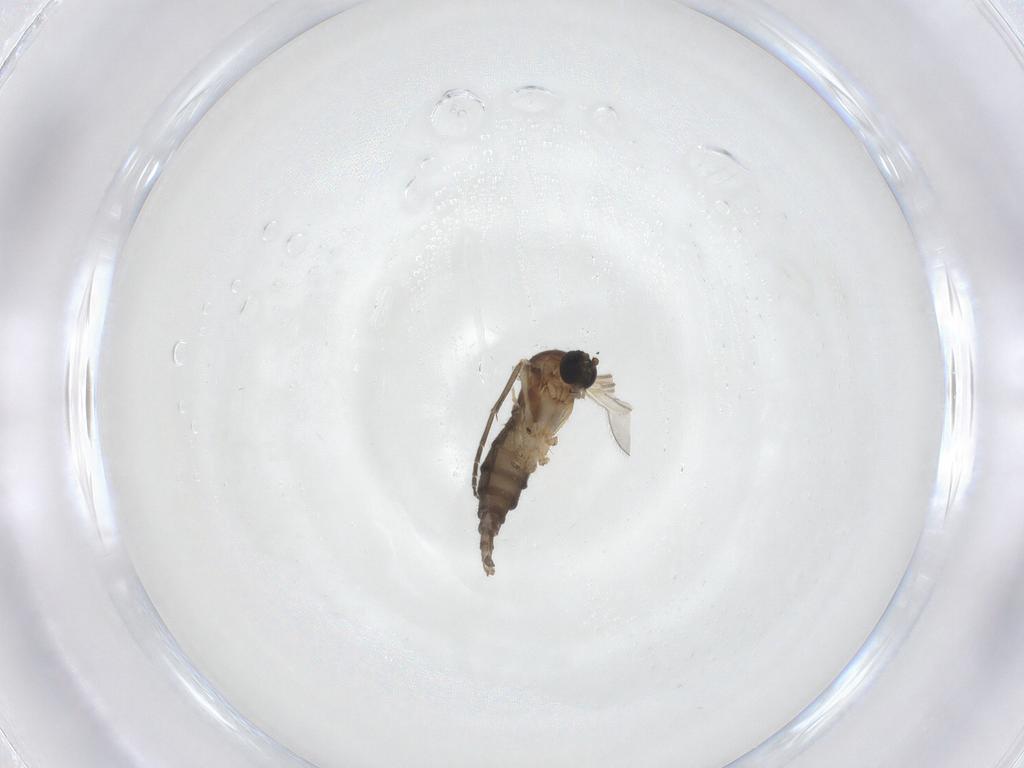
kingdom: Animalia
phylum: Arthropoda
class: Insecta
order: Diptera
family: Sciaridae
